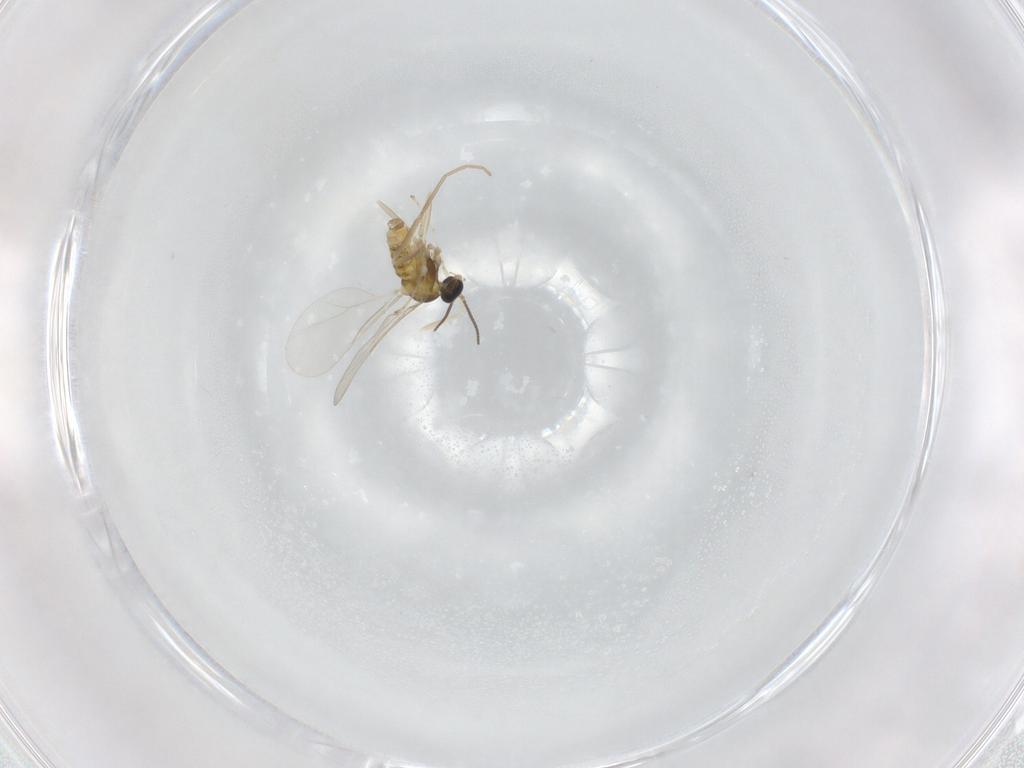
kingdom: Animalia
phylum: Arthropoda
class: Insecta
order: Diptera
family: Cecidomyiidae
